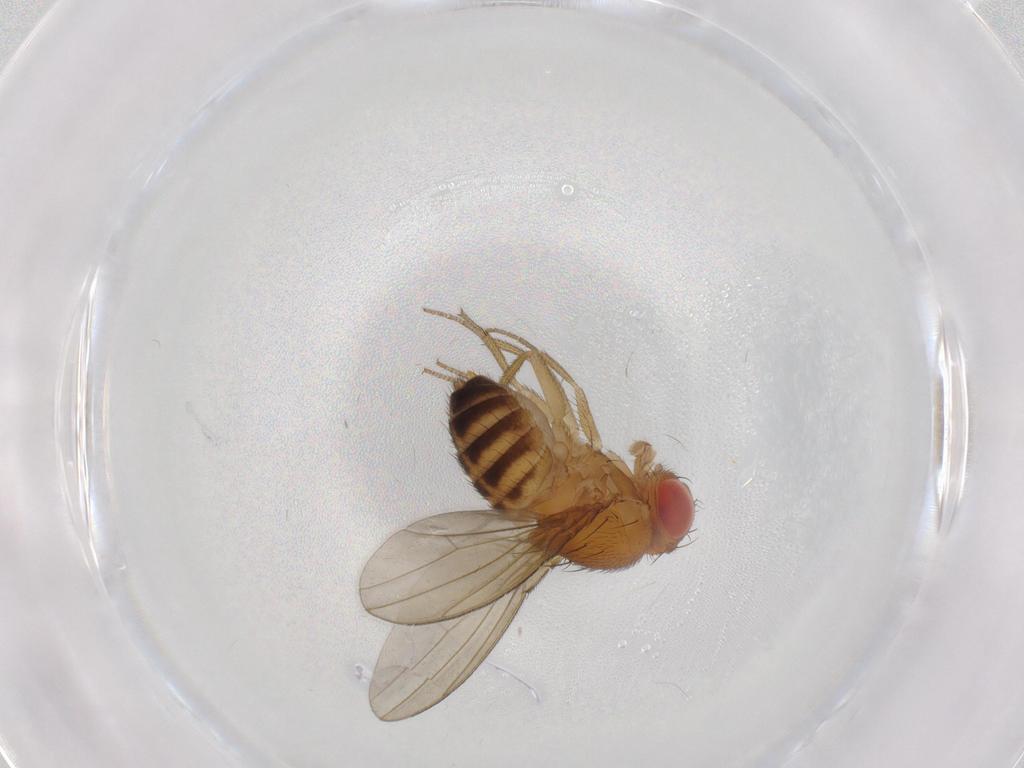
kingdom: Animalia
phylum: Arthropoda
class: Insecta
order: Diptera
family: Drosophilidae
